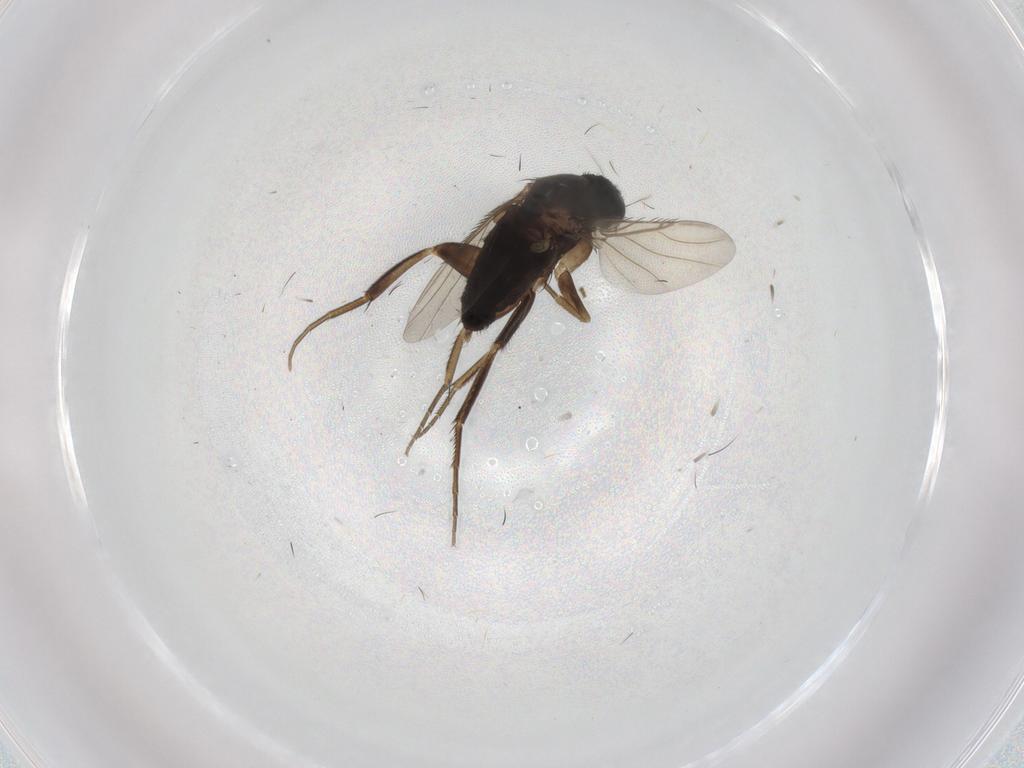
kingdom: Animalia
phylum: Arthropoda
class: Insecta
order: Diptera
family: Phoridae
